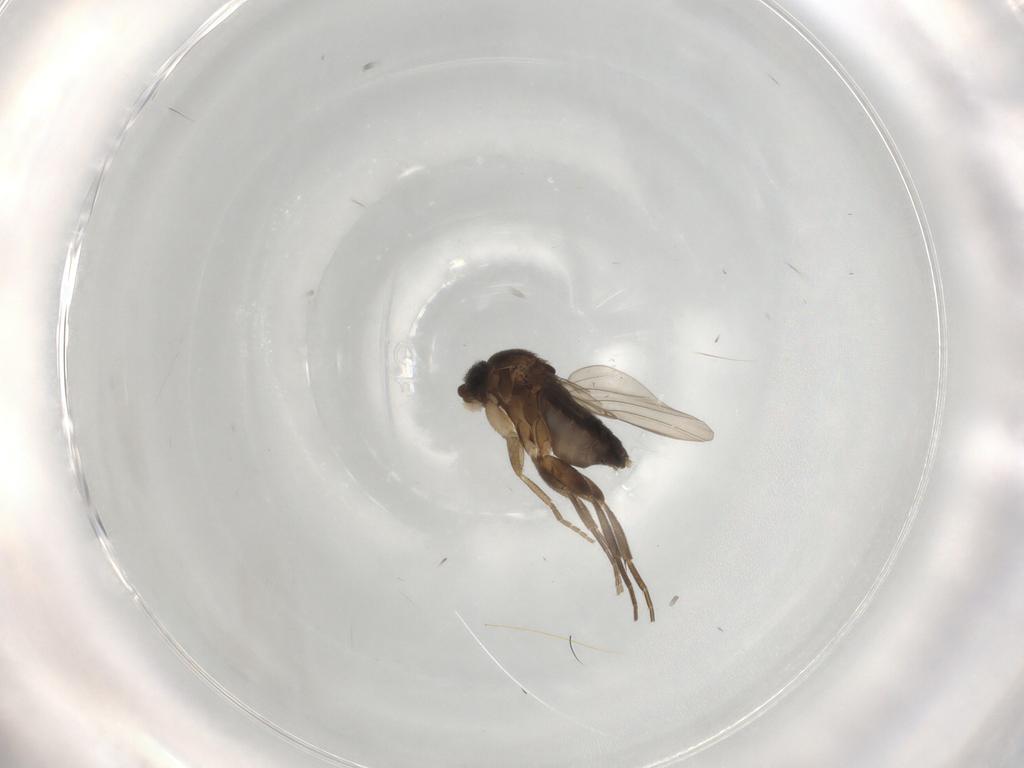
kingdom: Animalia
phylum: Arthropoda
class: Insecta
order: Diptera
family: Phoridae
